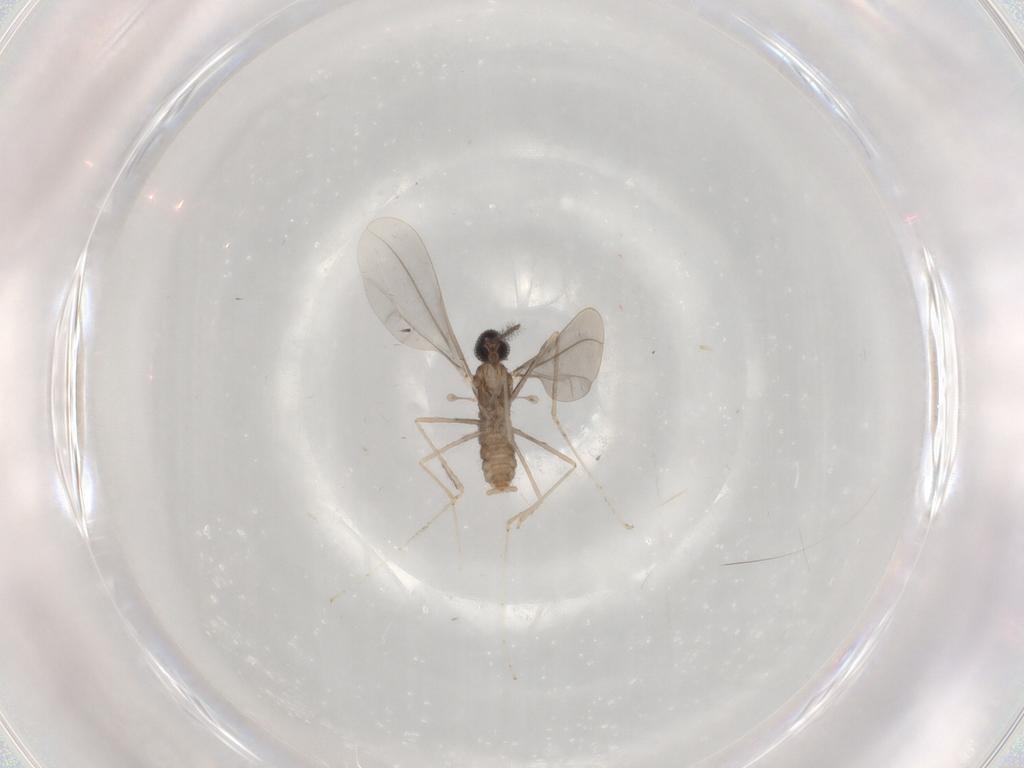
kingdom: Animalia
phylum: Arthropoda
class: Insecta
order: Diptera
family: Cecidomyiidae
